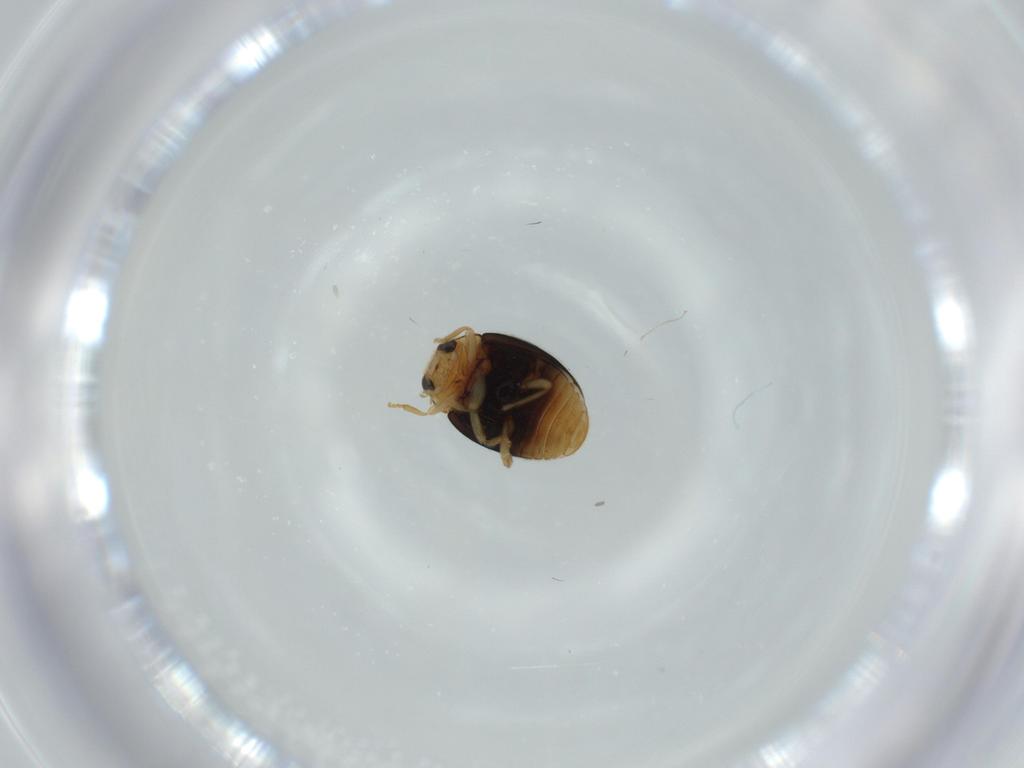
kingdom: Animalia
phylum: Arthropoda
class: Insecta
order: Coleoptera
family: Coccinellidae
